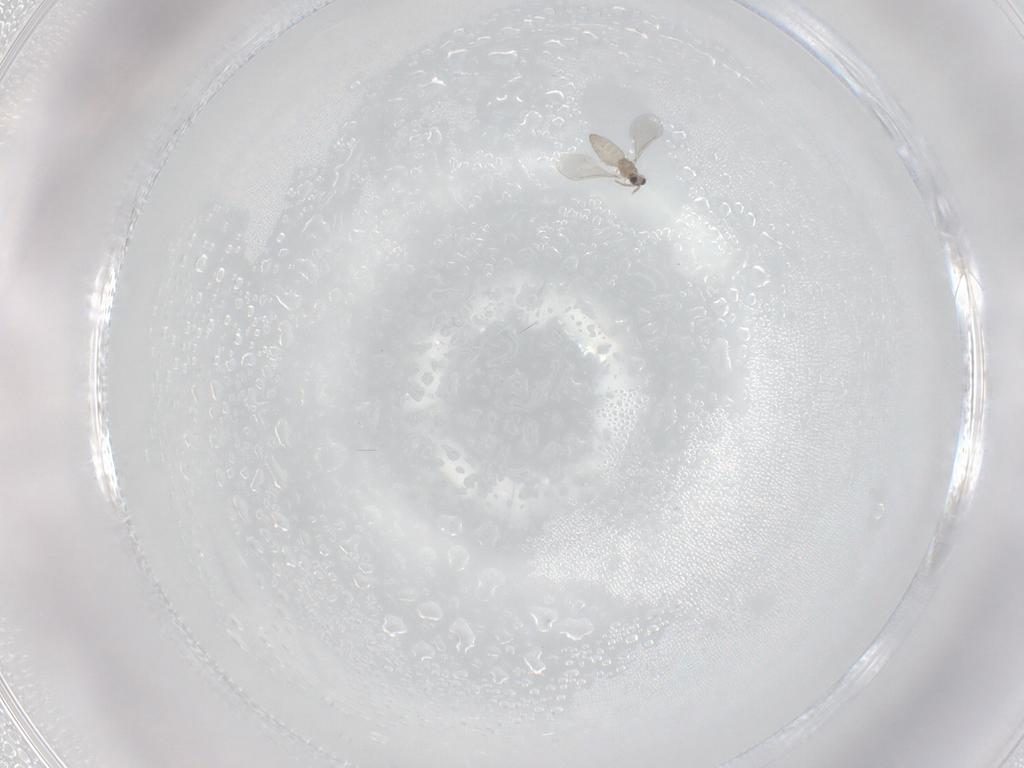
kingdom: Animalia
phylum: Arthropoda
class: Insecta
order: Diptera
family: Cecidomyiidae
